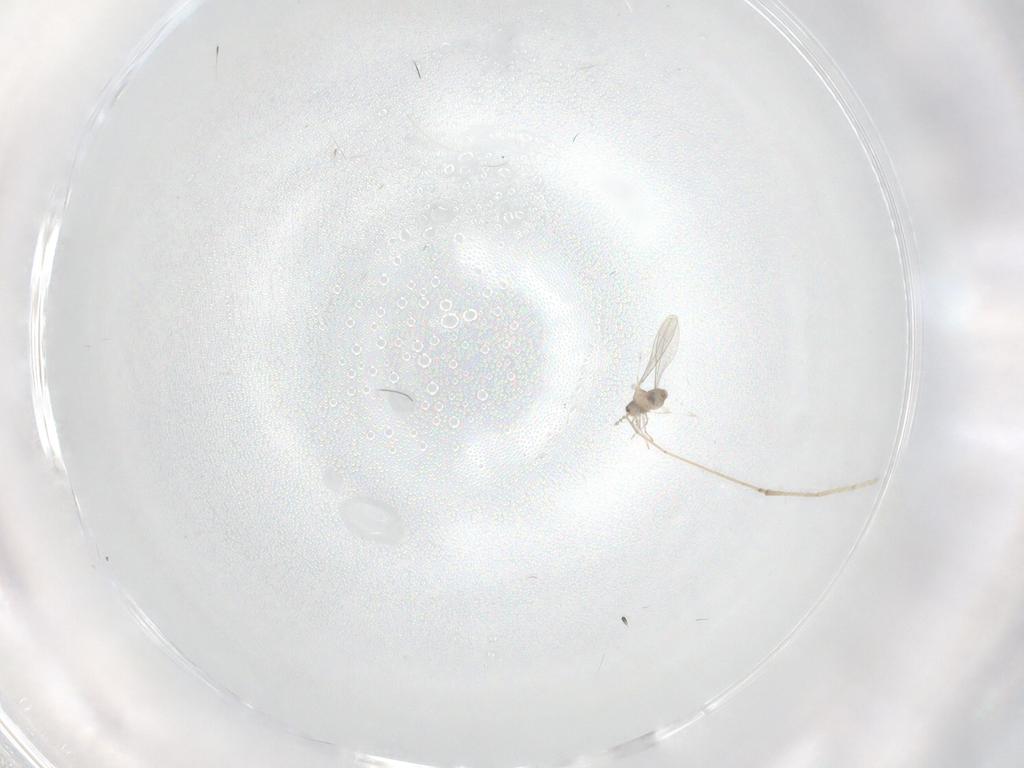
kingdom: Animalia
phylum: Arthropoda
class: Insecta
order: Diptera
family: Psychodidae
